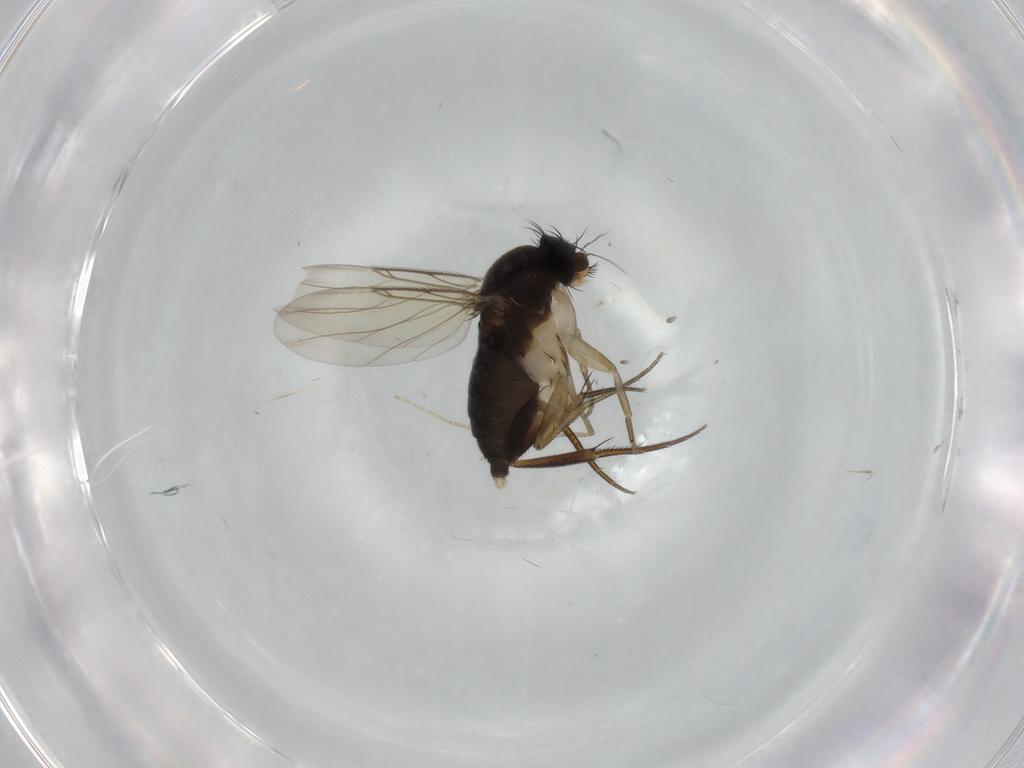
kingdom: Animalia
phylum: Arthropoda
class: Insecta
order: Diptera
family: Phoridae
